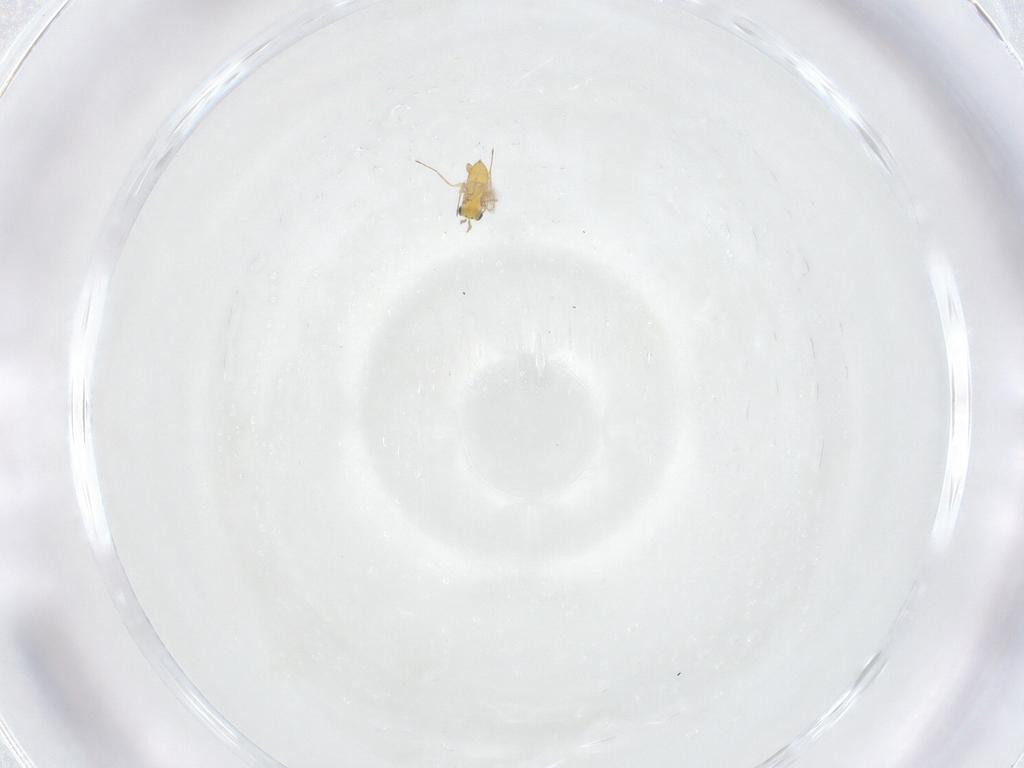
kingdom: Animalia
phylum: Arthropoda
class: Insecta
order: Hymenoptera
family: Trichogrammatidae
